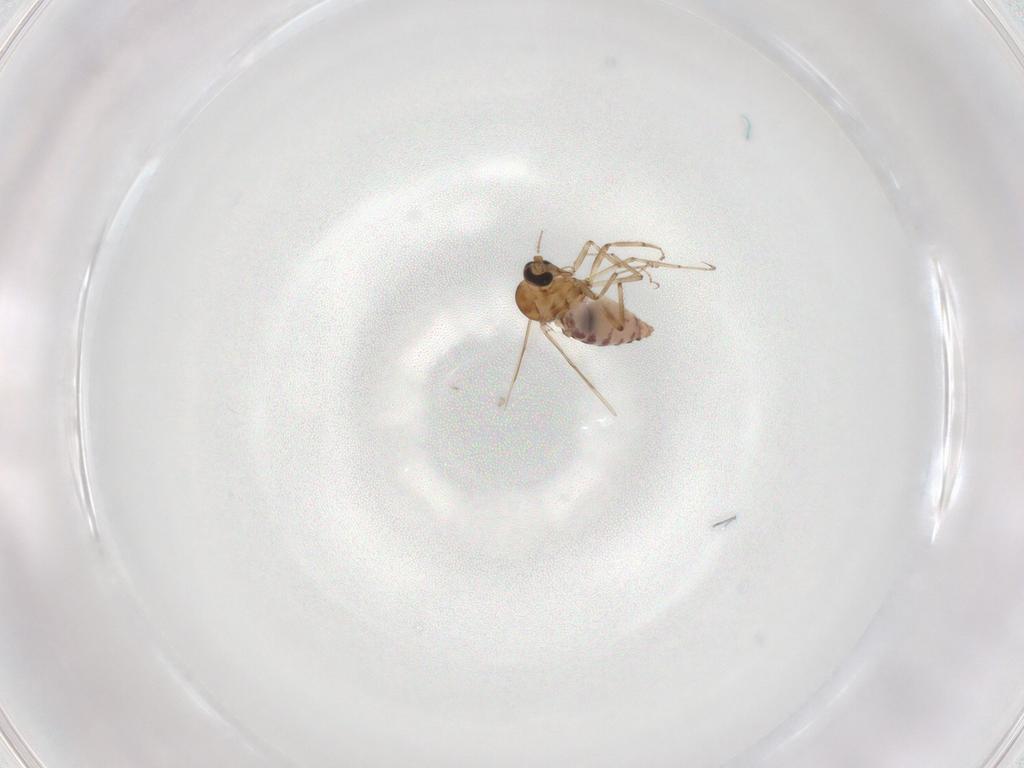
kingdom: Animalia
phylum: Arthropoda
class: Insecta
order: Diptera
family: Ceratopogonidae
